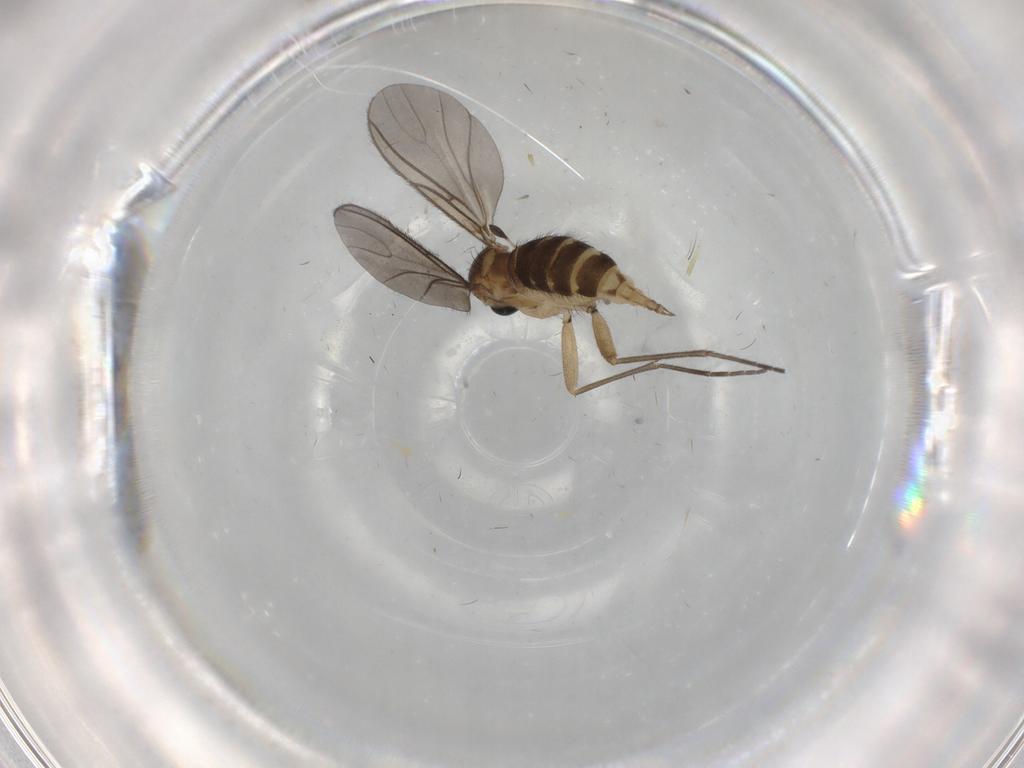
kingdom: Animalia
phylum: Arthropoda
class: Insecta
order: Diptera
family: Sciaridae
